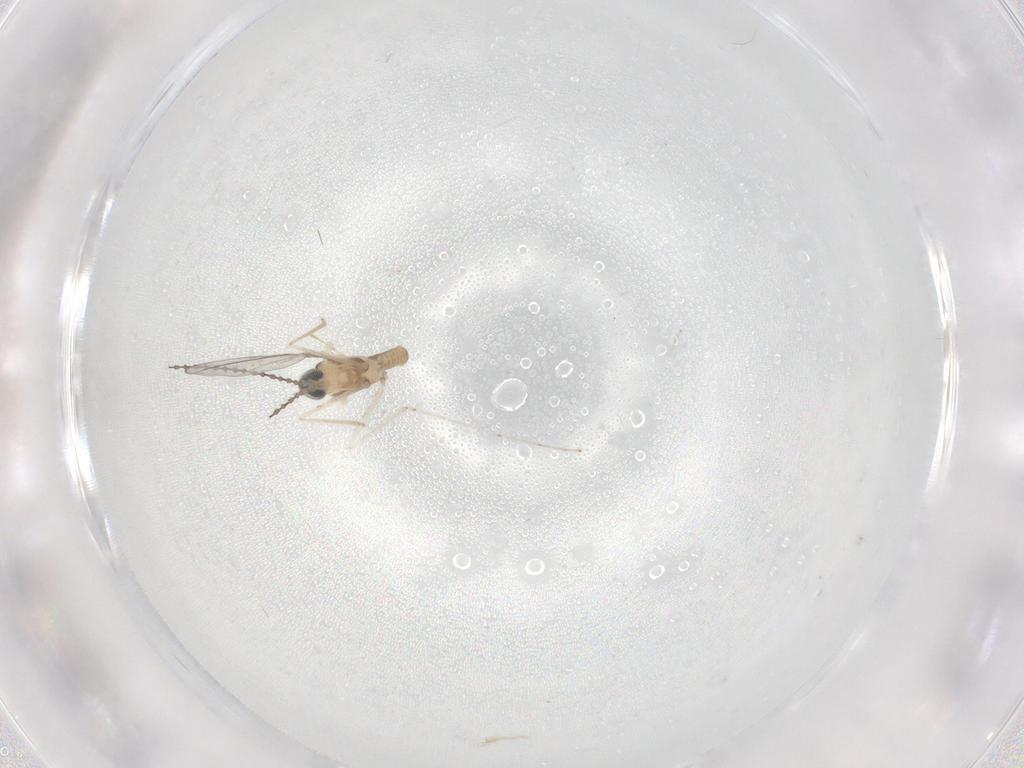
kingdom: Animalia
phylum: Arthropoda
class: Insecta
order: Diptera
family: Cecidomyiidae
